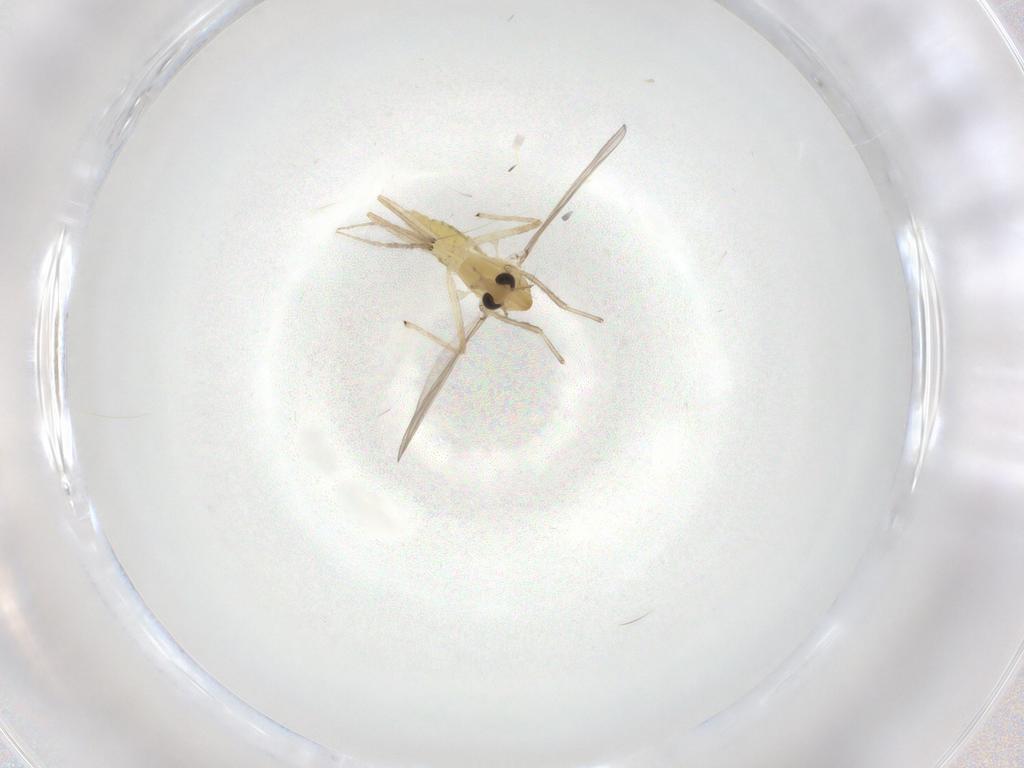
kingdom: Animalia
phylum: Arthropoda
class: Insecta
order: Diptera
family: Chironomidae
